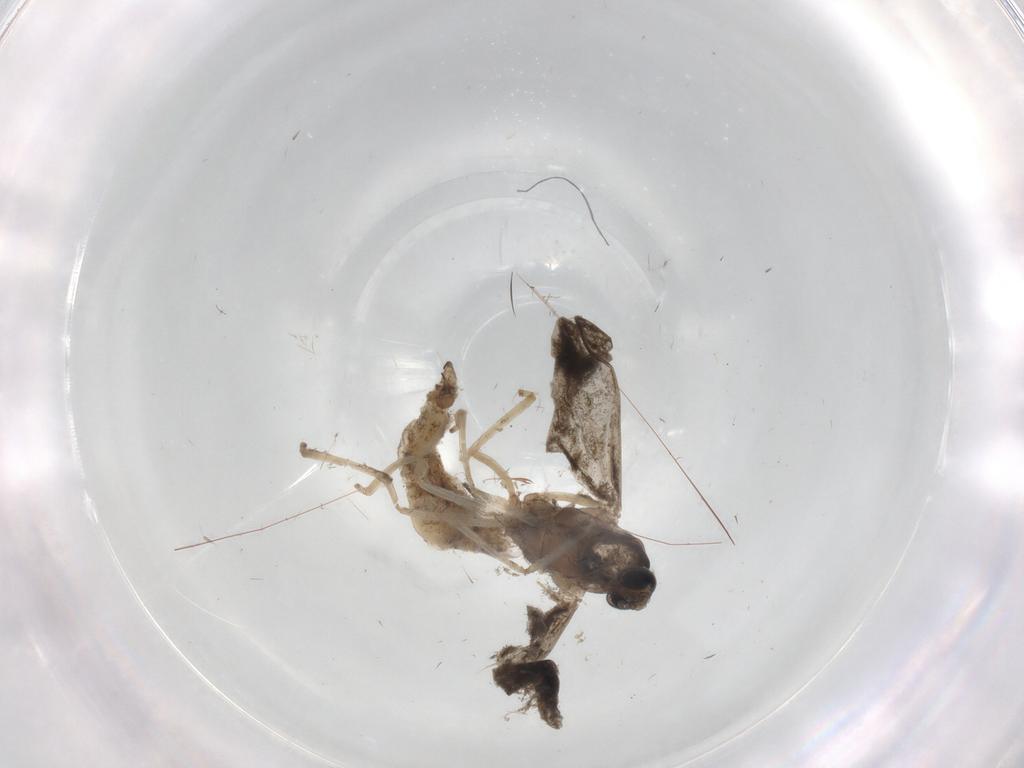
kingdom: Animalia
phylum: Arthropoda
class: Insecta
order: Diptera
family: Cecidomyiidae
